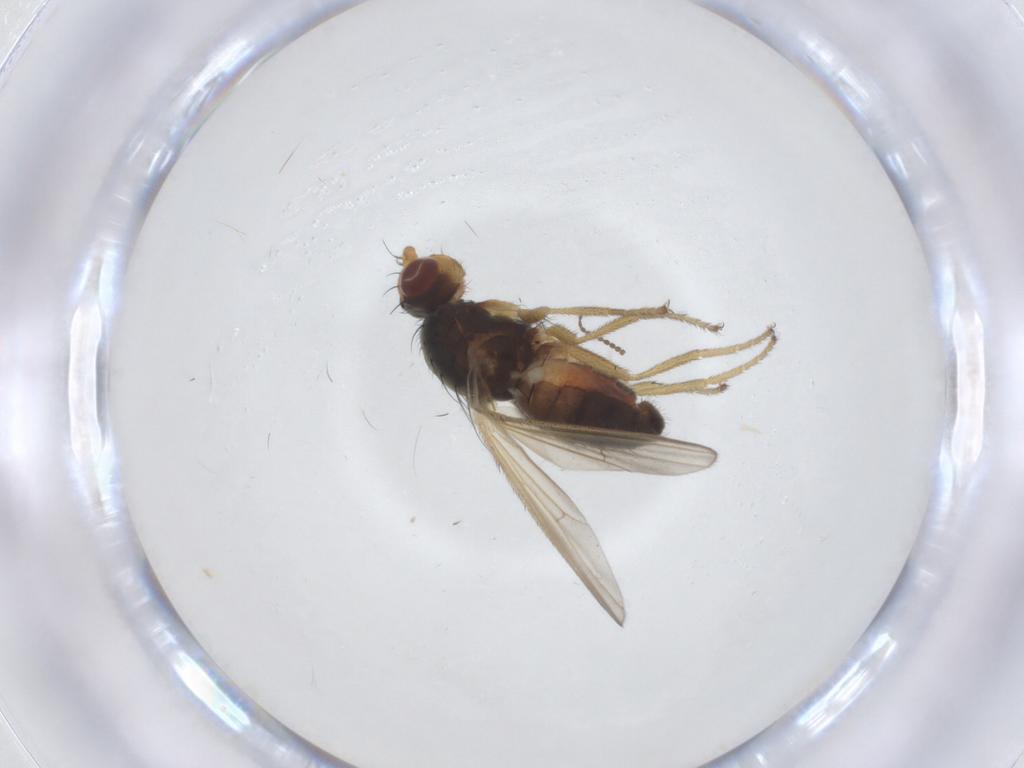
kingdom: Animalia
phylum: Arthropoda
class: Insecta
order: Diptera
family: Heleomyzidae
